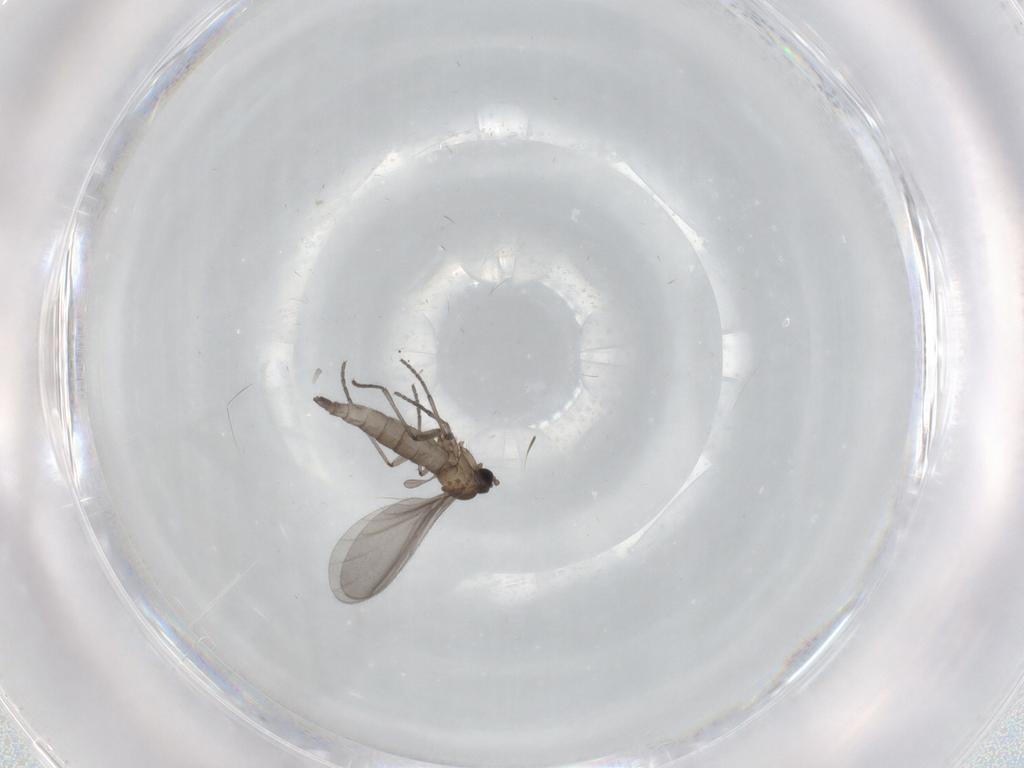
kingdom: Animalia
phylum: Arthropoda
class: Insecta
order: Diptera
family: Sciaridae
